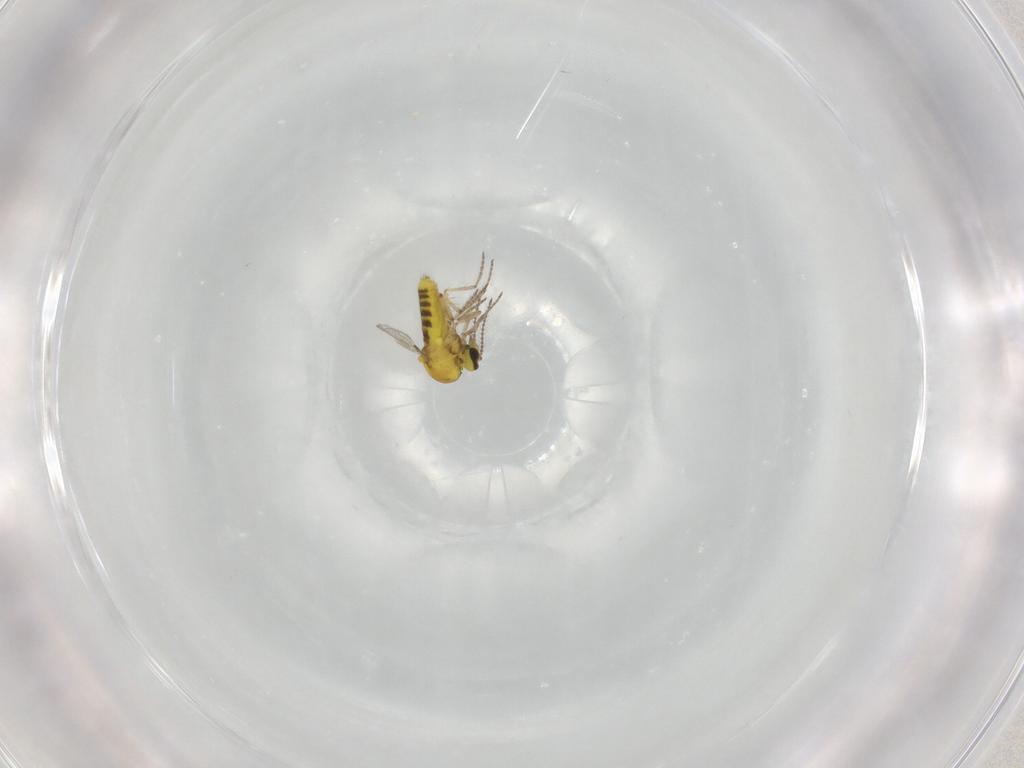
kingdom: Animalia
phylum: Arthropoda
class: Insecta
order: Diptera
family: Ceratopogonidae
